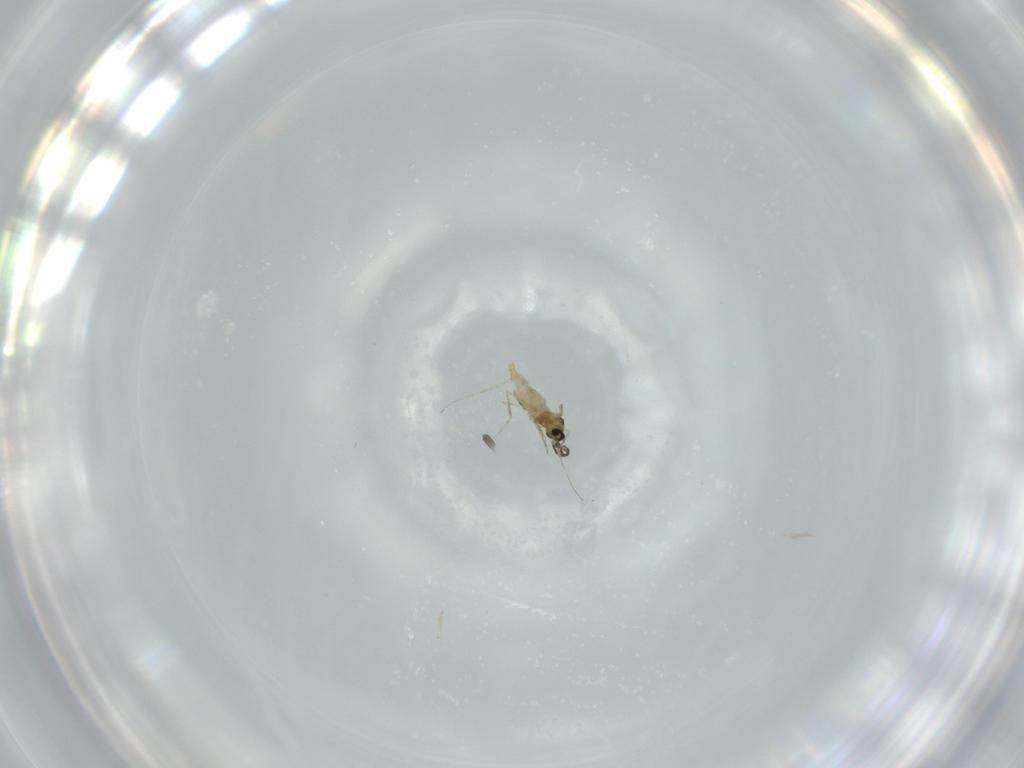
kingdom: Animalia
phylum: Arthropoda
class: Insecta
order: Diptera
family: Cecidomyiidae
